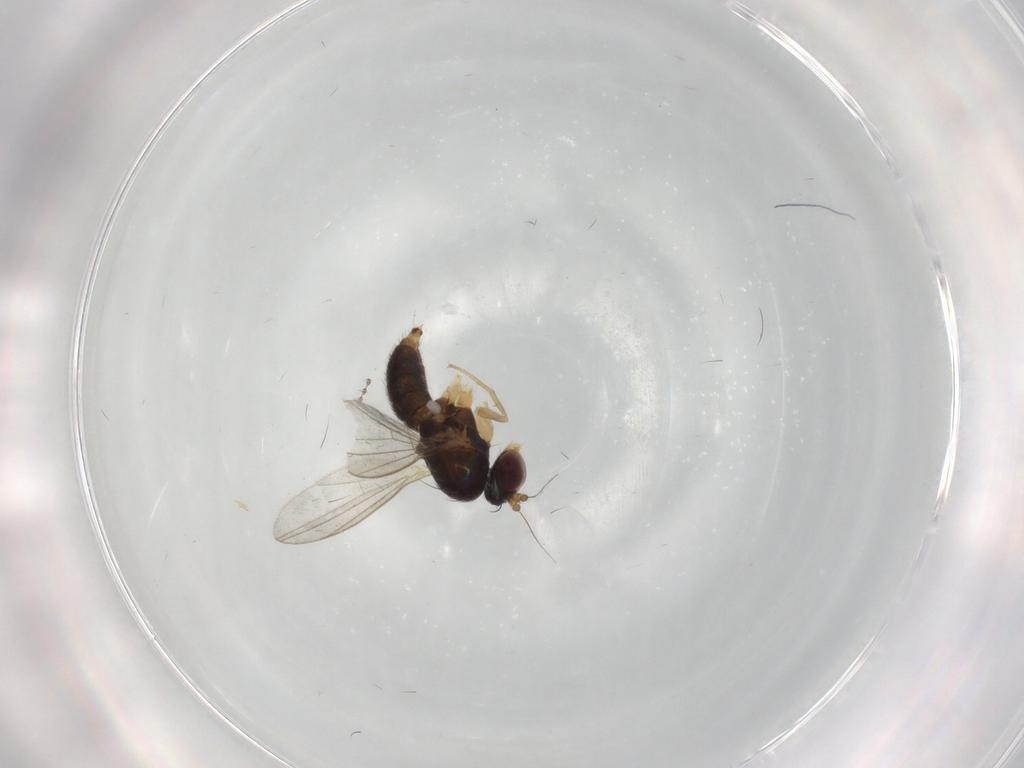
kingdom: Animalia
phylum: Arthropoda
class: Insecta
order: Diptera
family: Dolichopodidae
